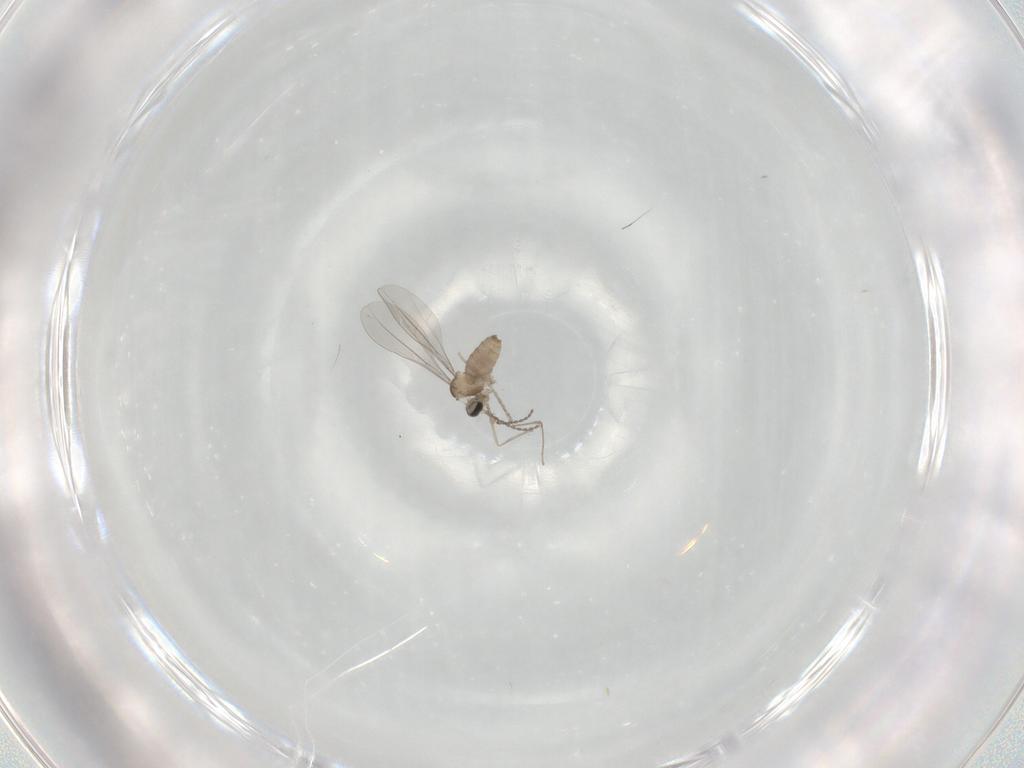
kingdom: Animalia
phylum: Arthropoda
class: Insecta
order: Diptera
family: Cecidomyiidae
